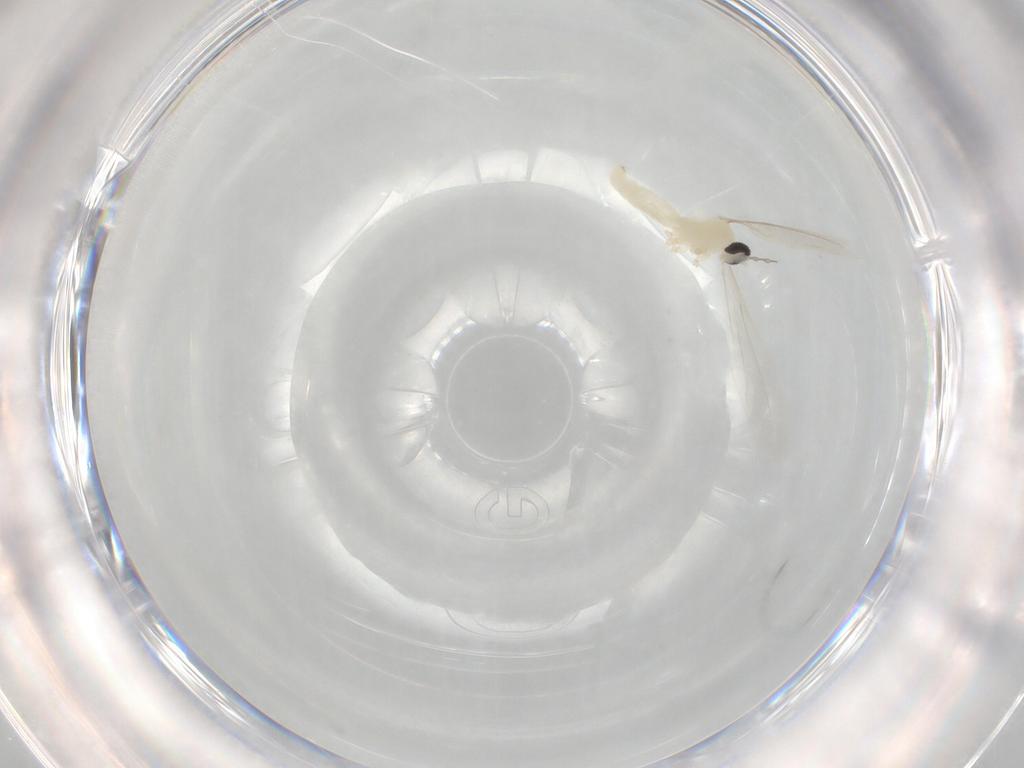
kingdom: Animalia
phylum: Arthropoda
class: Insecta
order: Diptera
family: Cecidomyiidae
